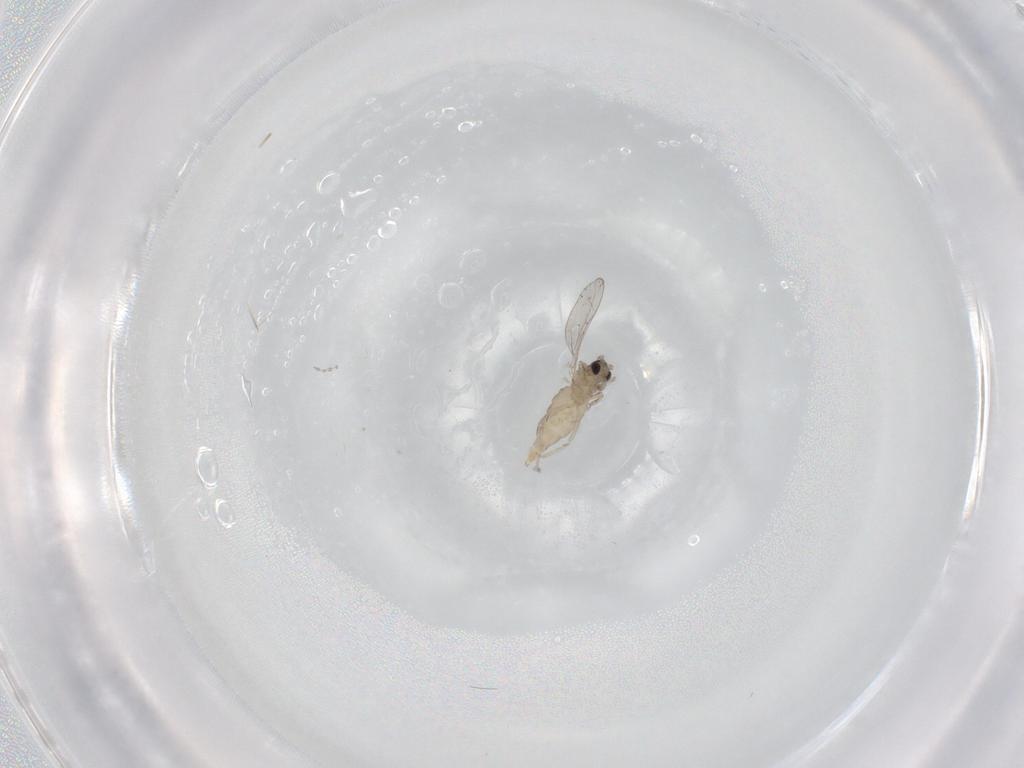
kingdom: Animalia
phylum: Arthropoda
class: Insecta
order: Diptera
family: Cecidomyiidae
